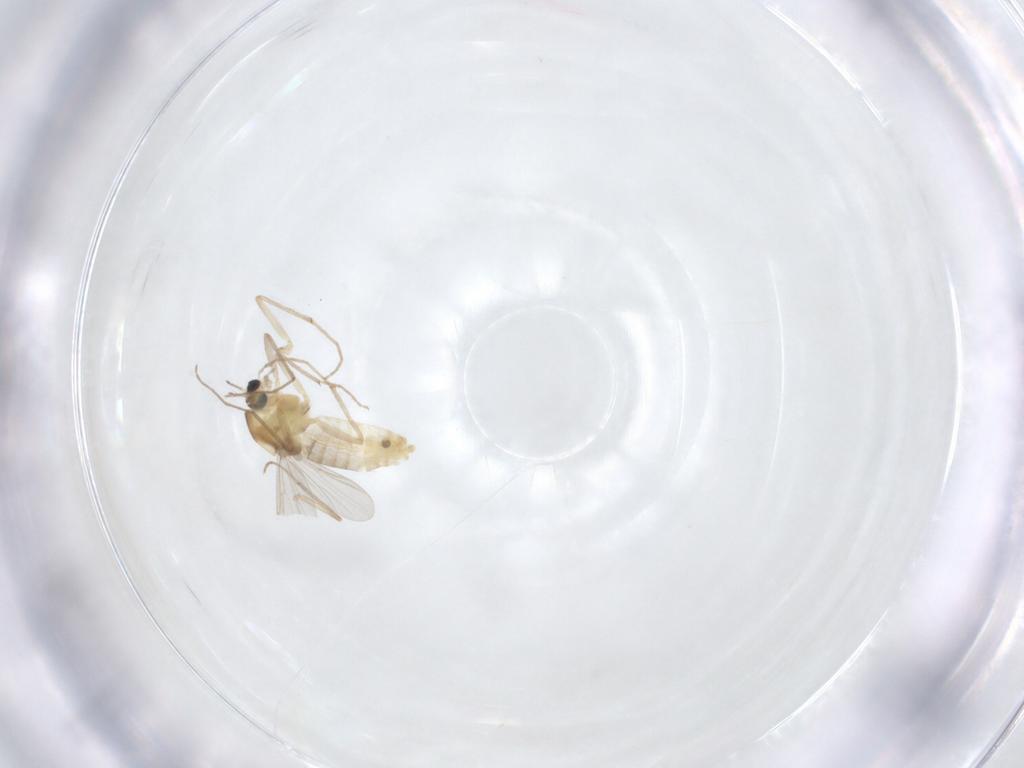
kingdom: Animalia
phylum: Arthropoda
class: Insecta
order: Diptera
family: Chironomidae
